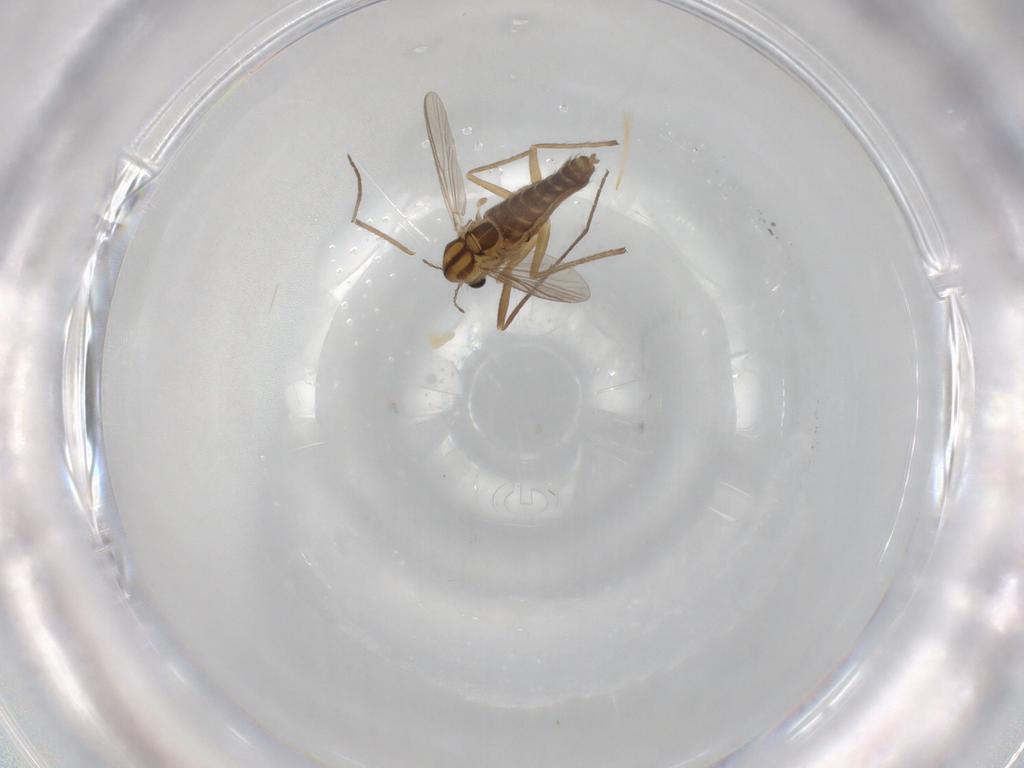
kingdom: Animalia
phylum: Arthropoda
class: Insecta
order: Diptera
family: Chironomidae
